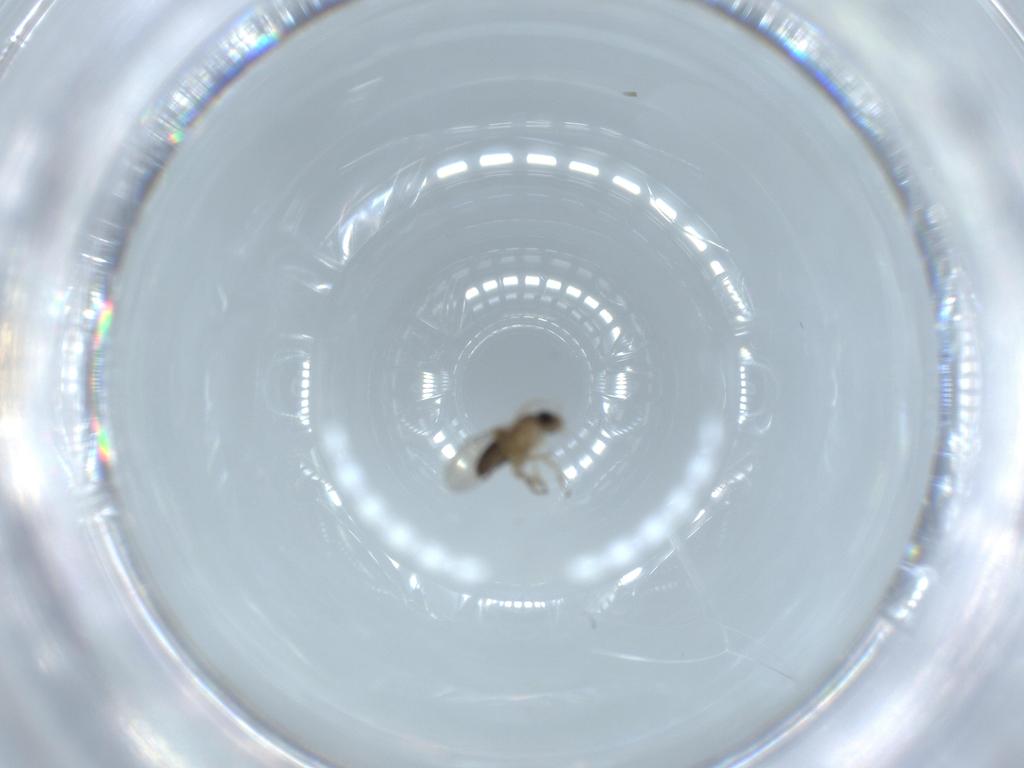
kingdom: Animalia
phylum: Arthropoda
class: Insecta
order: Diptera
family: Phoridae
